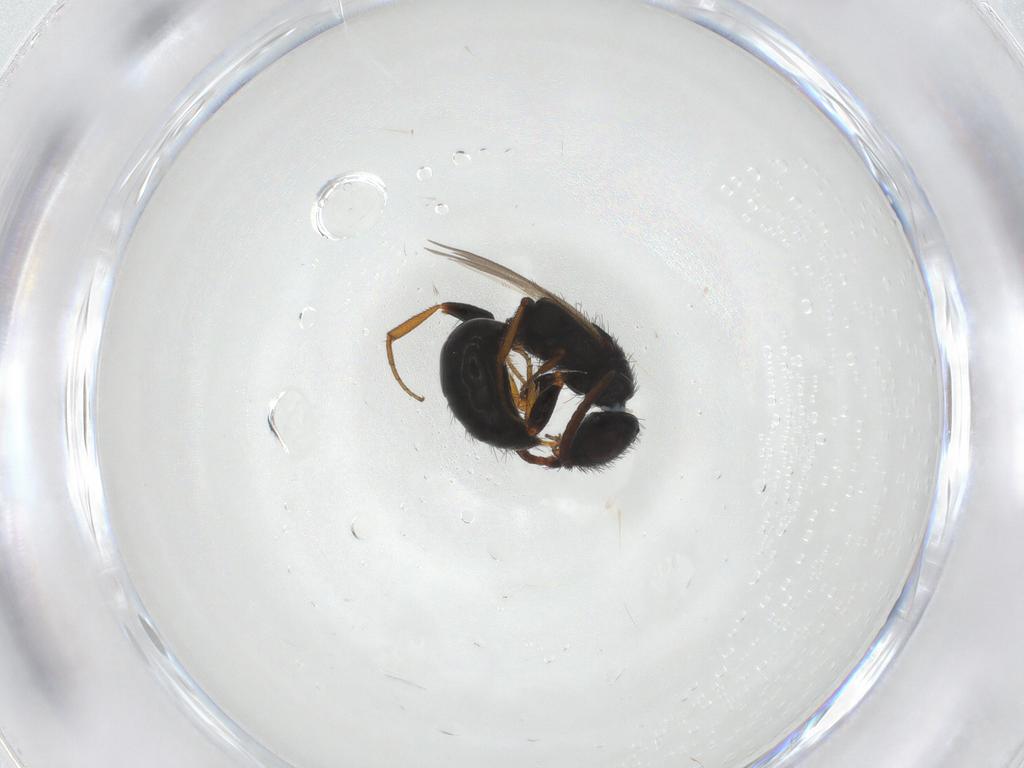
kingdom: Animalia
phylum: Arthropoda
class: Insecta
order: Hymenoptera
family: Bethylidae
